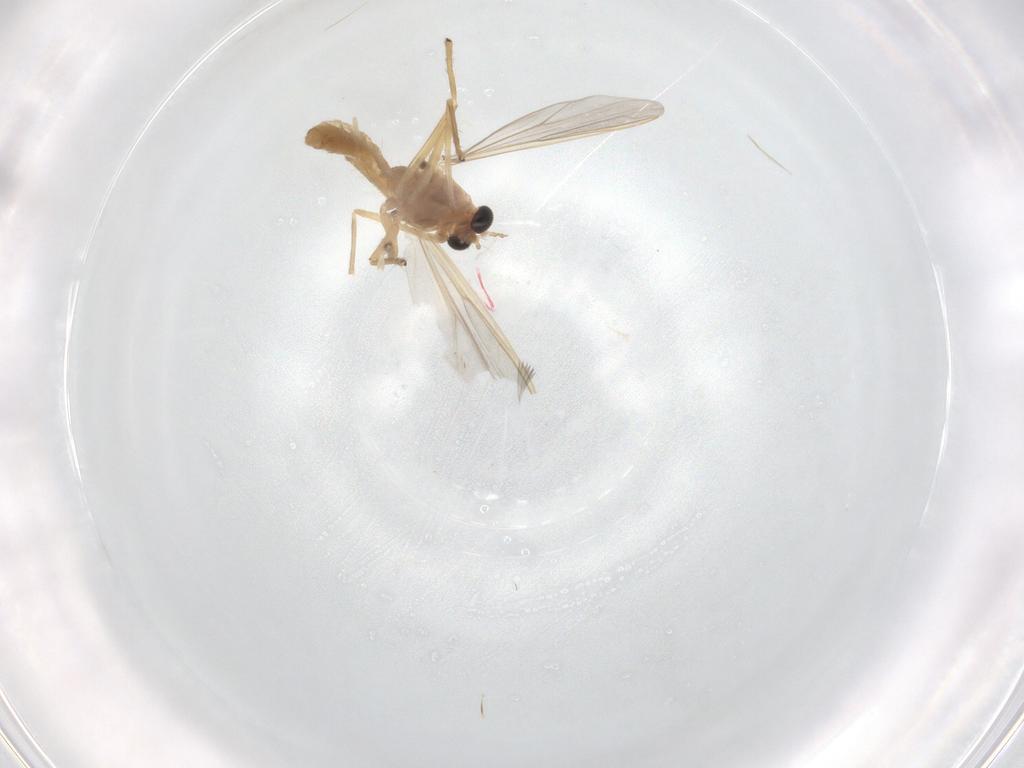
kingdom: Animalia
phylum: Arthropoda
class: Insecta
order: Diptera
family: Chironomidae
